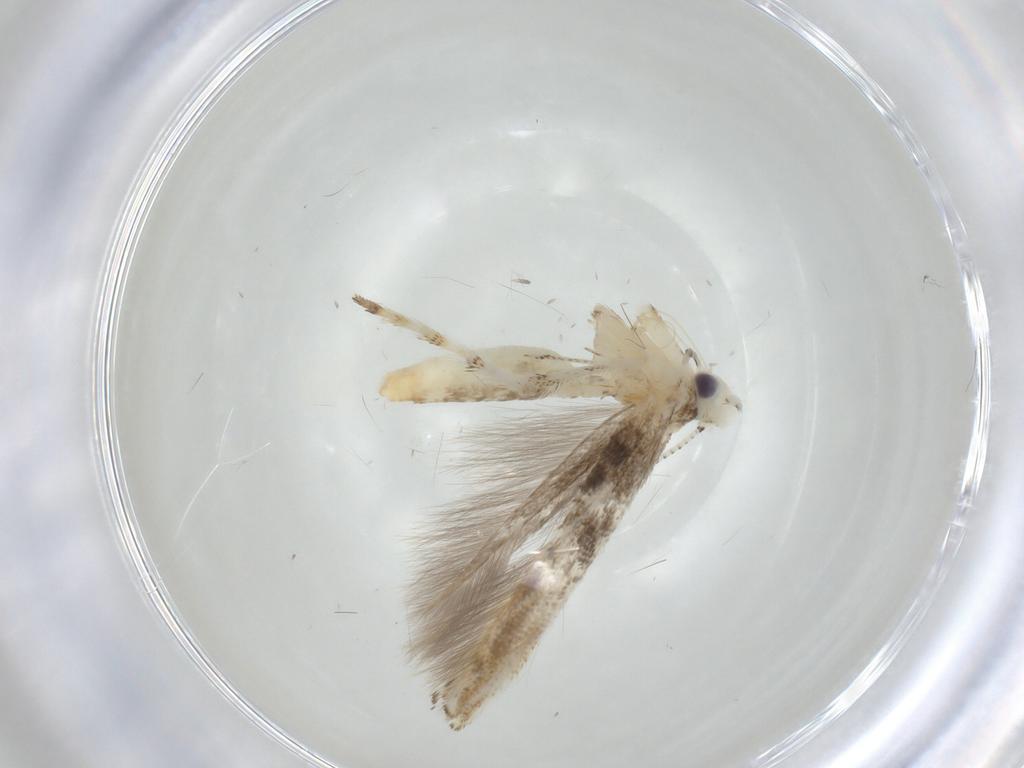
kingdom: Animalia
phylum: Arthropoda
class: Insecta
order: Lepidoptera
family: Gracillariidae
